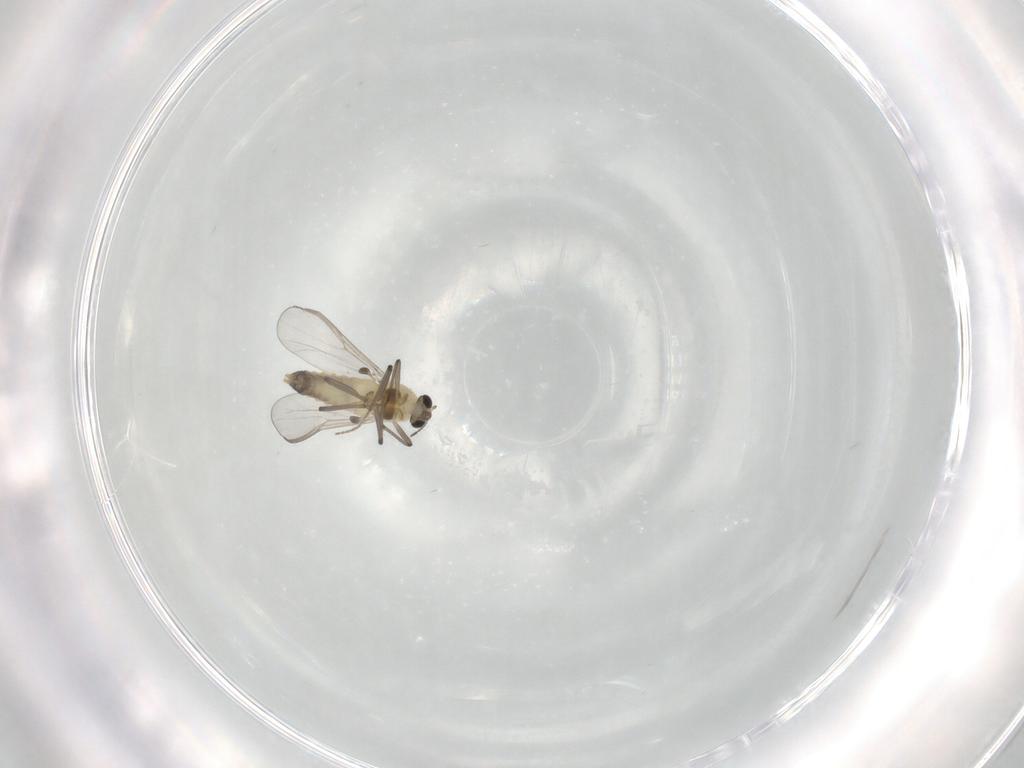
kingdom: Animalia
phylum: Arthropoda
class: Insecta
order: Diptera
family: Chironomidae
